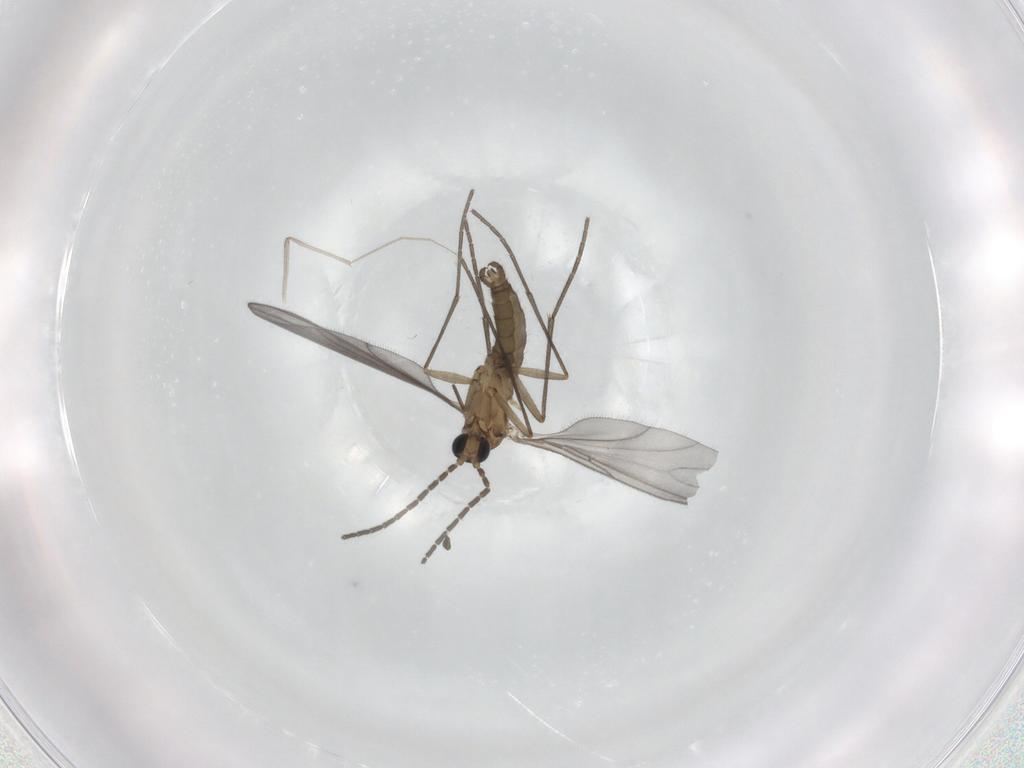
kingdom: Animalia
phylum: Arthropoda
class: Insecta
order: Diptera
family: Sciaridae
